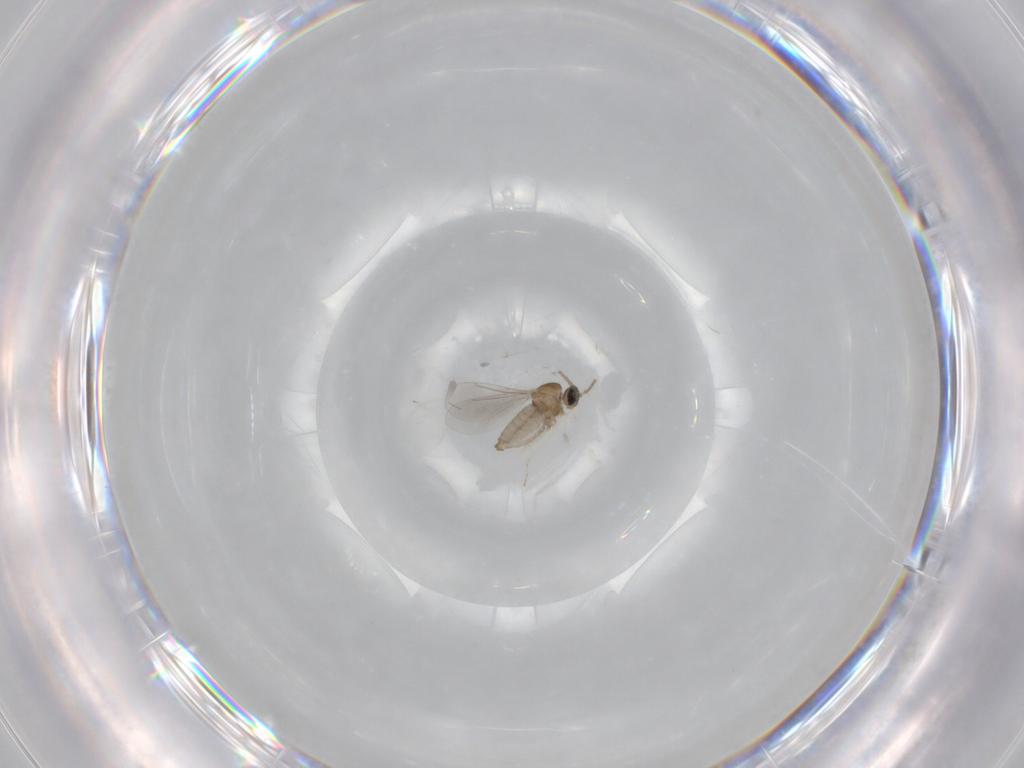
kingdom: Animalia
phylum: Arthropoda
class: Insecta
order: Diptera
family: Cecidomyiidae
